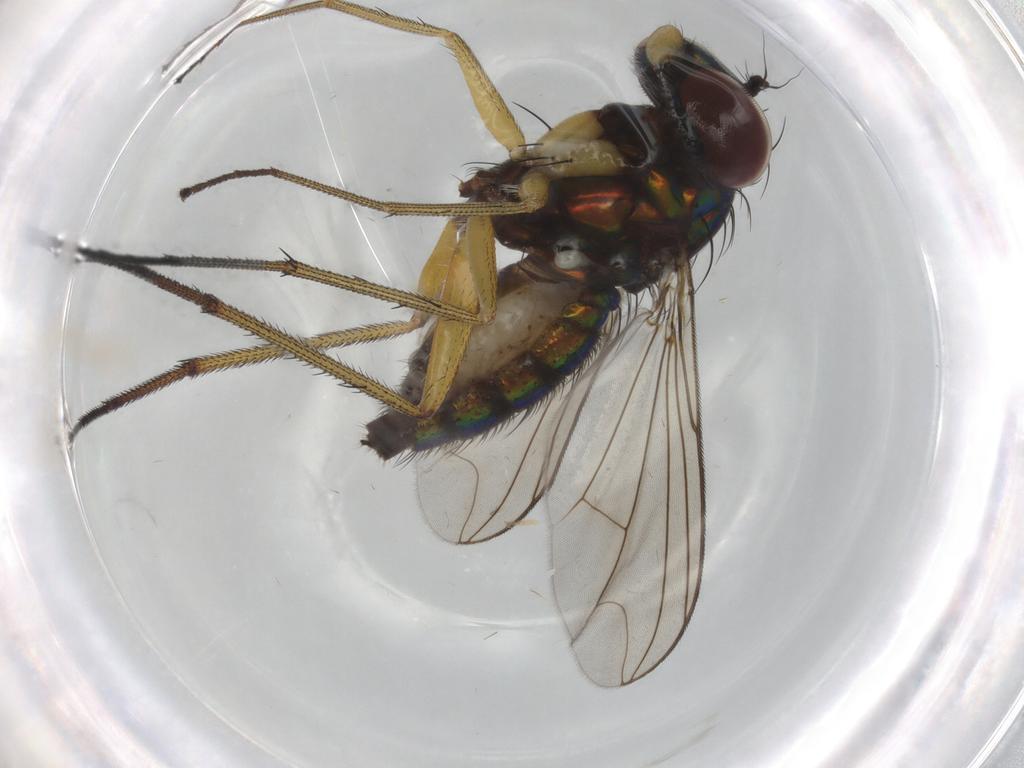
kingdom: Animalia
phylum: Arthropoda
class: Insecta
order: Diptera
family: Dolichopodidae
